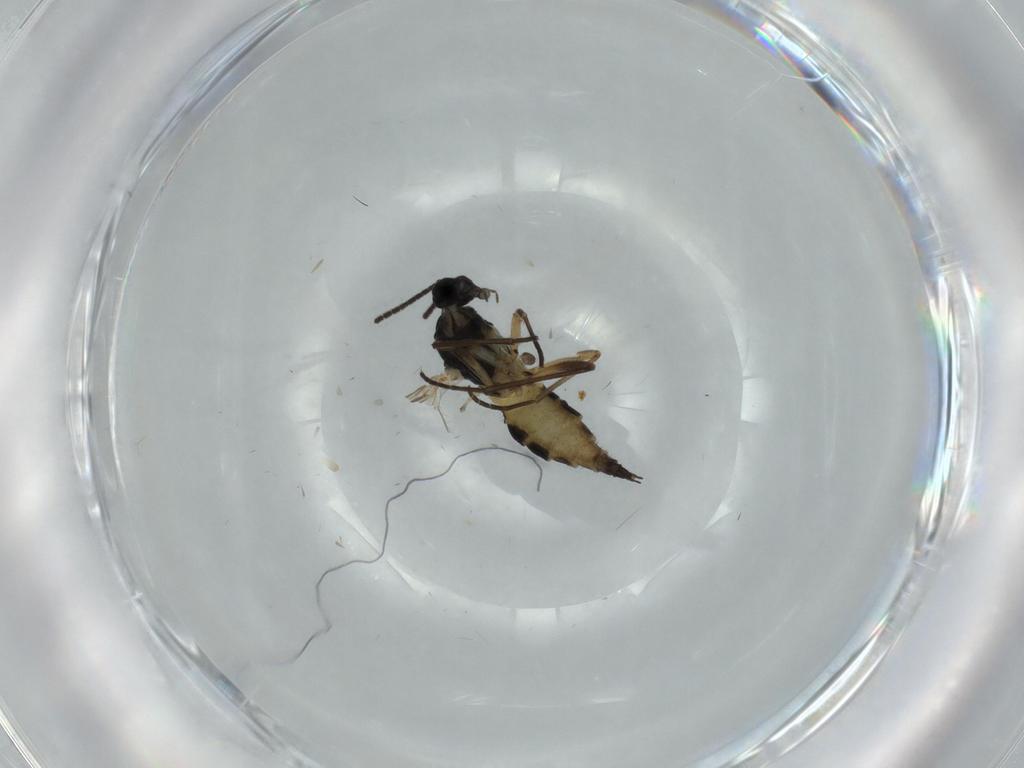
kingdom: Animalia
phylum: Arthropoda
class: Insecta
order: Diptera
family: Sciaridae
